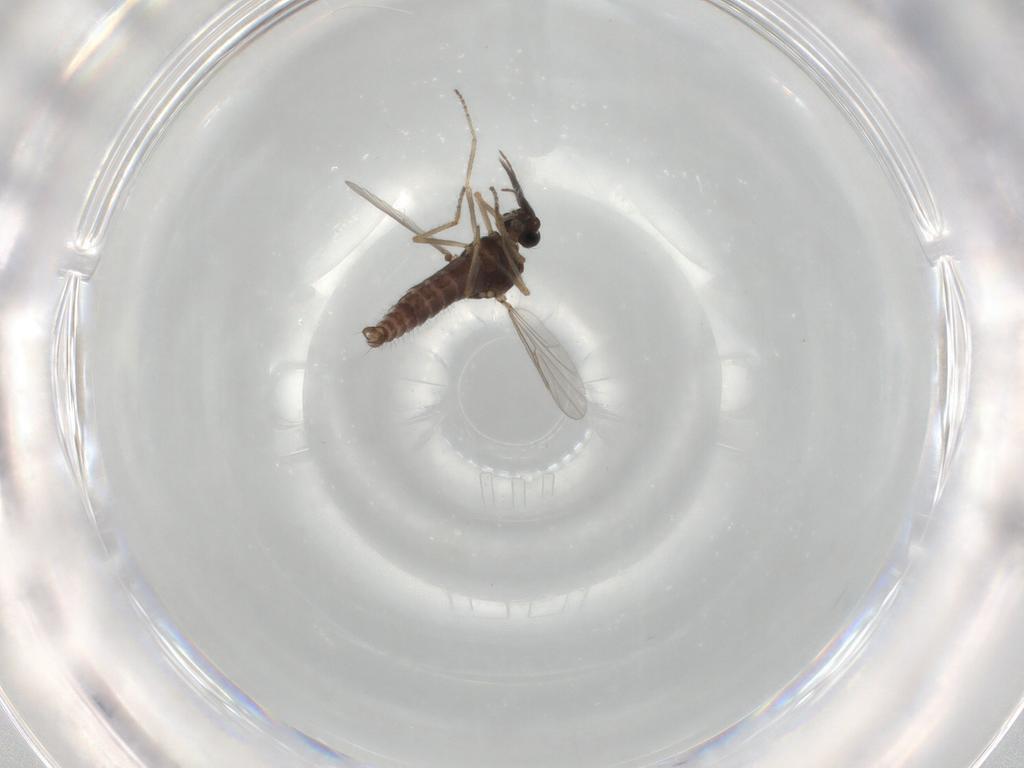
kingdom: Animalia
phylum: Arthropoda
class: Insecta
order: Diptera
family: Ceratopogonidae
